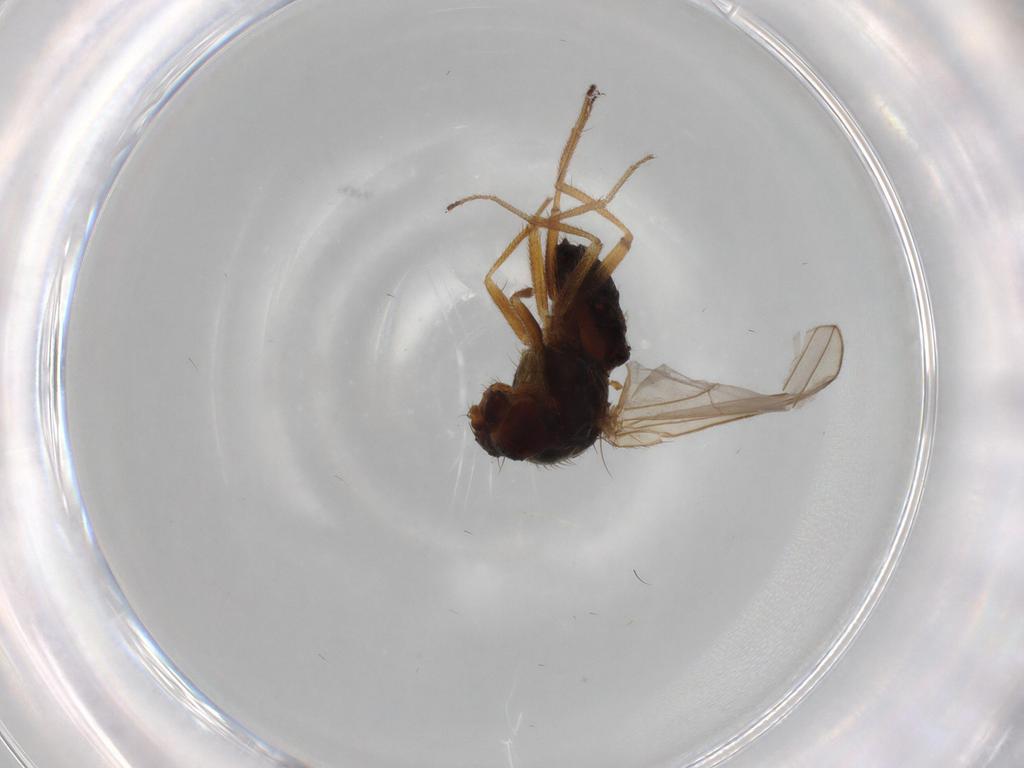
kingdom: Animalia
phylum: Arthropoda
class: Insecta
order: Diptera
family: Drosophilidae
